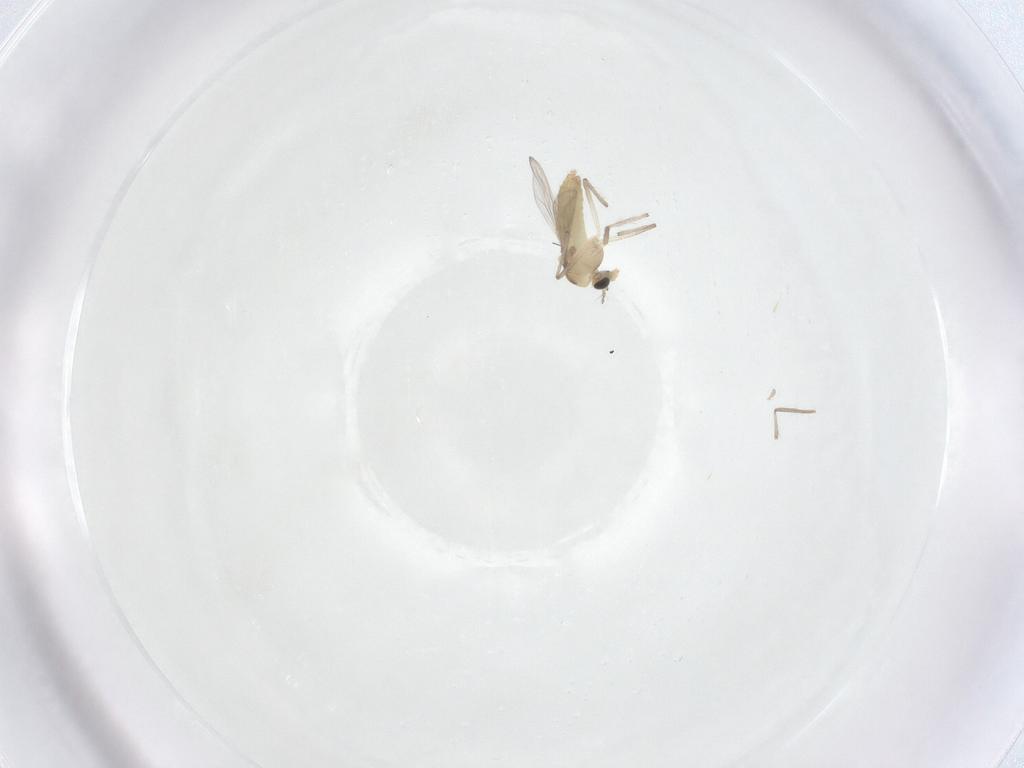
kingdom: Animalia
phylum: Arthropoda
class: Insecta
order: Diptera
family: Chironomidae
